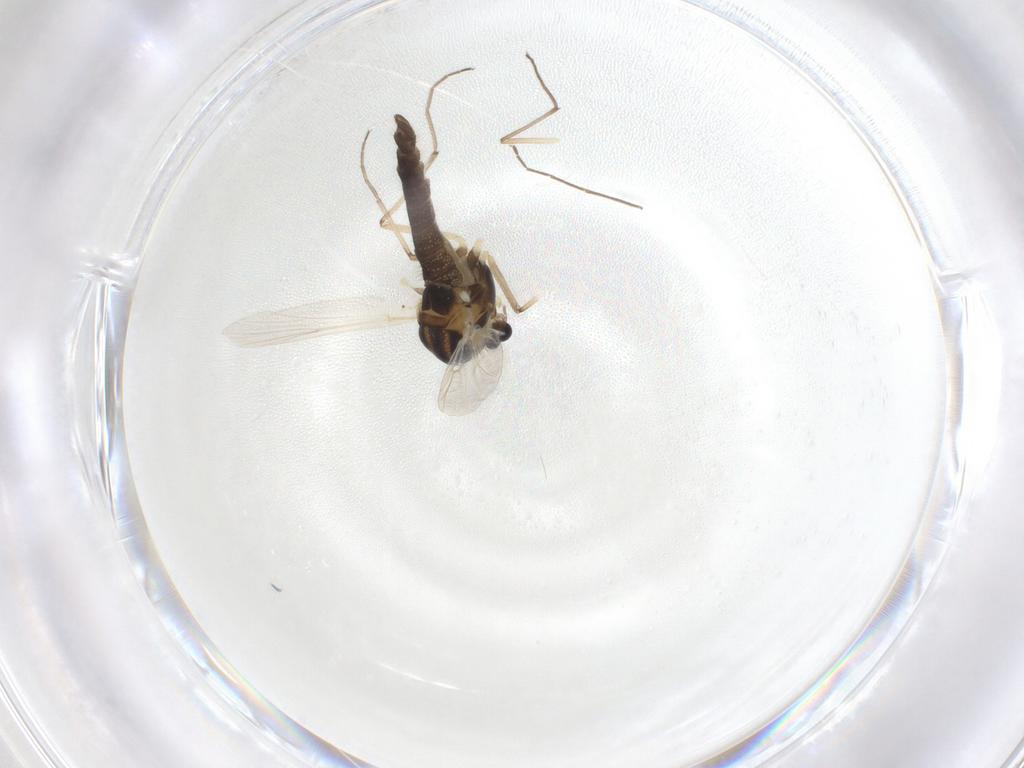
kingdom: Animalia
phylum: Arthropoda
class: Insecta
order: Diptera
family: Chironomidae
